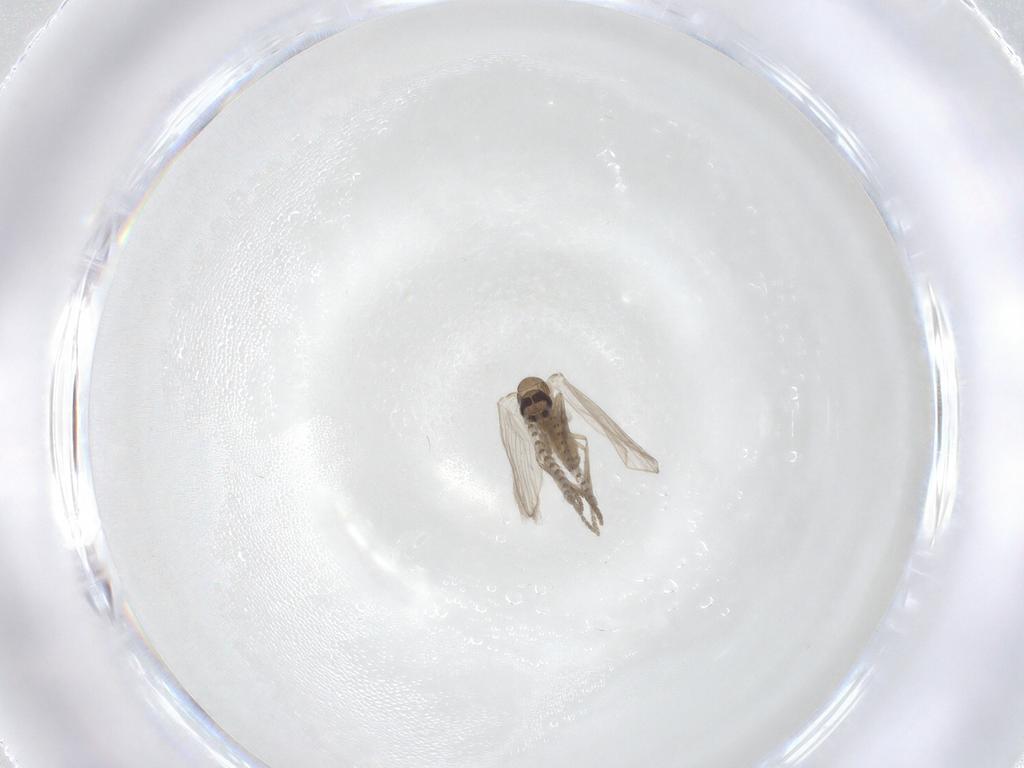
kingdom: Animalia
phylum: Arthropoda
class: Insecta
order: Diptera
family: Psychodidae
